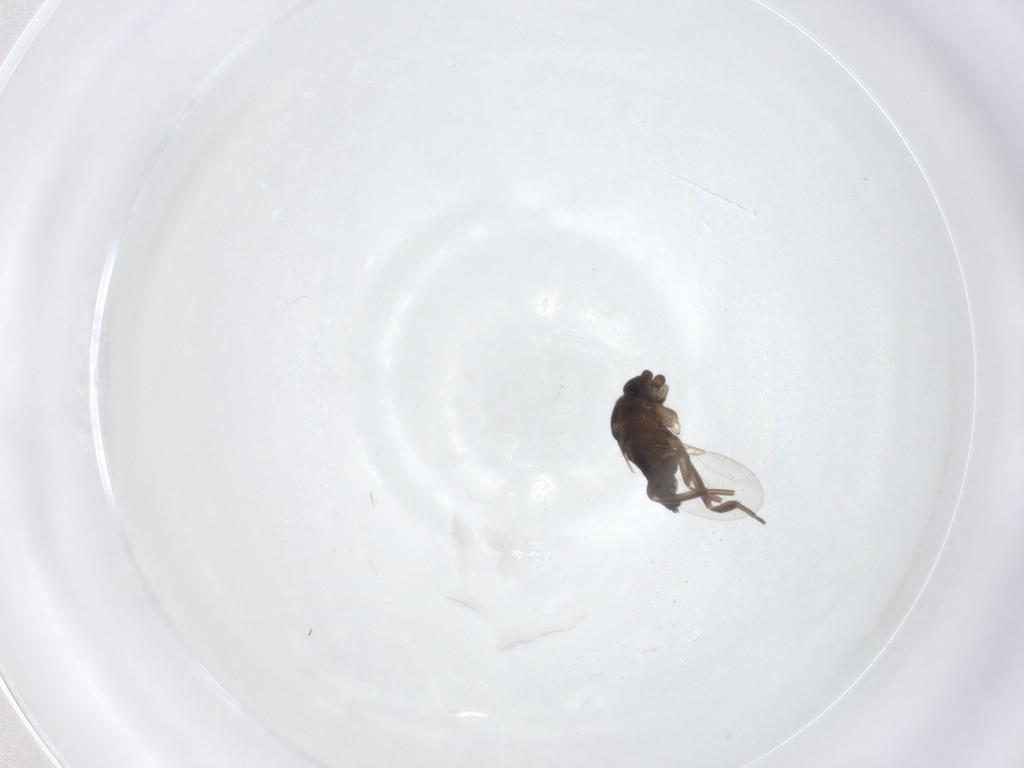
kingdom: Animalia
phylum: Arthropoda
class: Insecta
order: Diptera
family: Phoridae
